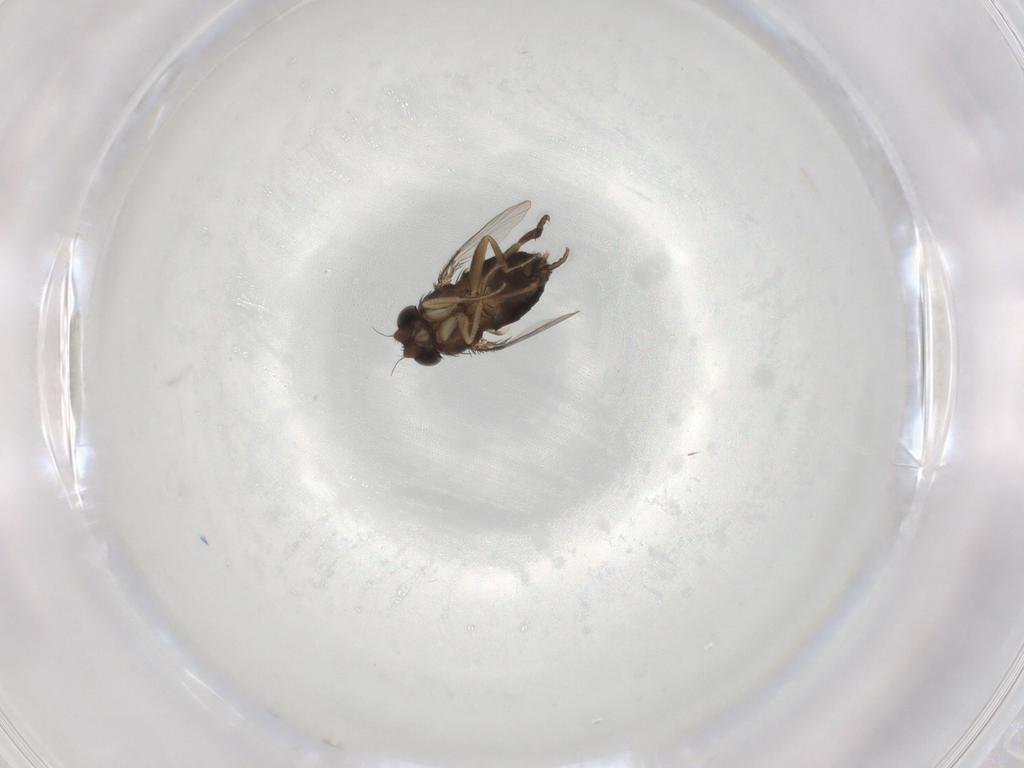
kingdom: Animalia
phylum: Arthropoda
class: Insecta
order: Diptera
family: Phoridae
